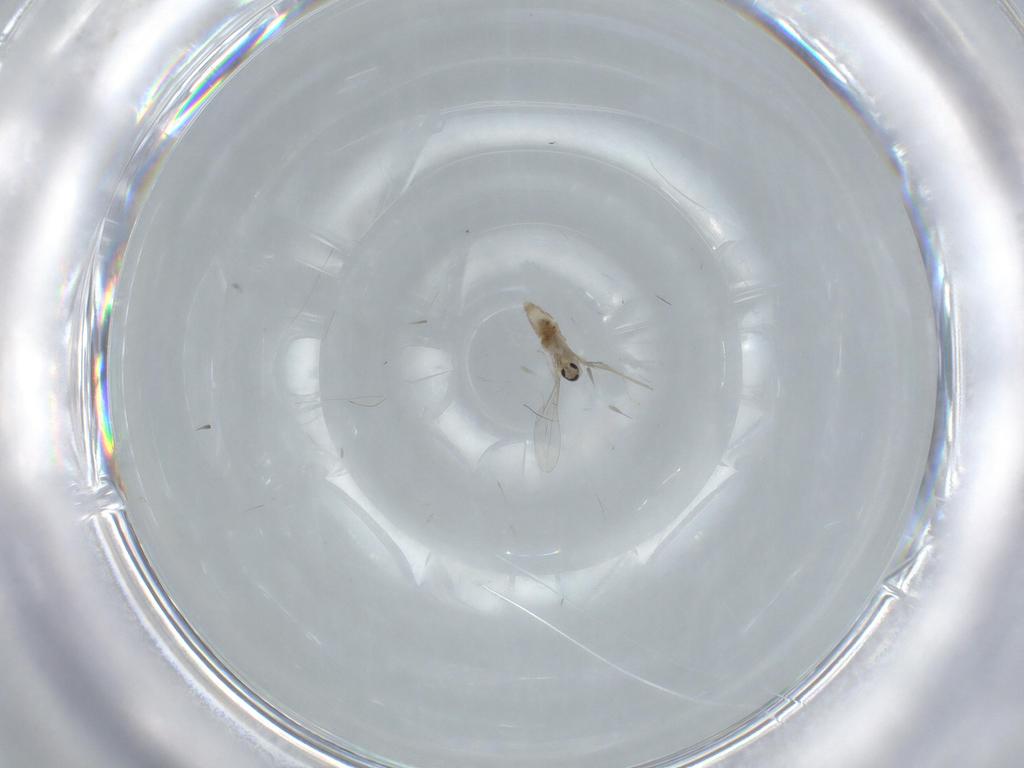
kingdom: Animalia
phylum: Arthropoda
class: Insecta
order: Diptera
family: Cecidomyiidae
